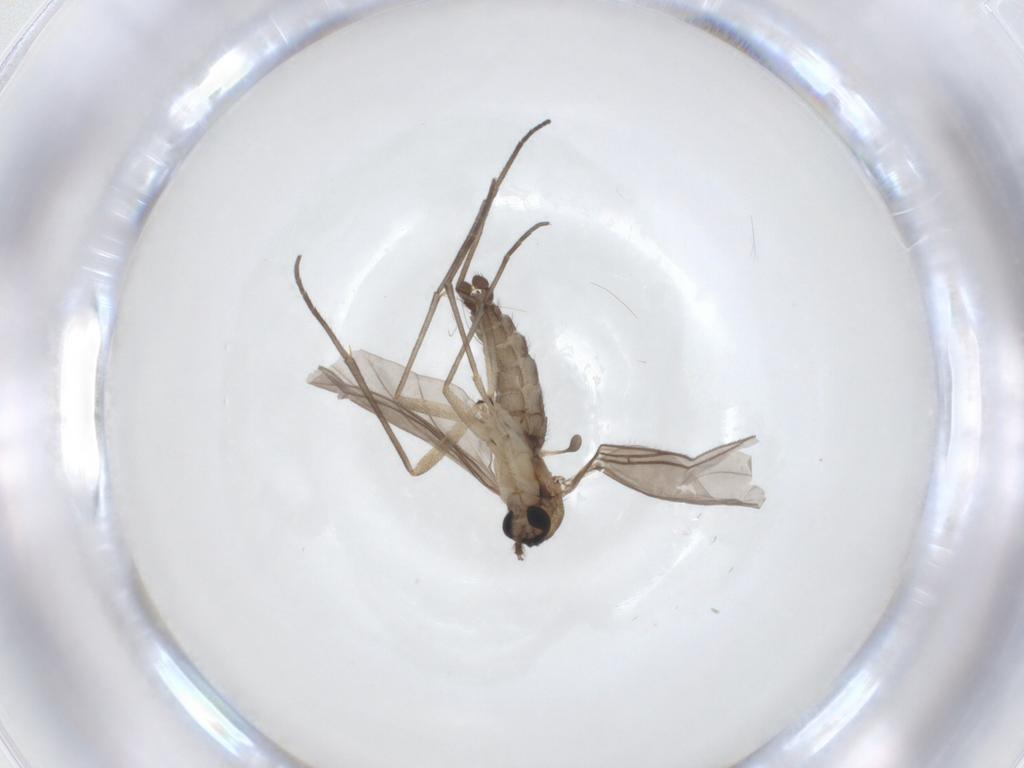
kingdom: Animalia
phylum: Arthropoda
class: Insecta
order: Diptera
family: Sciaridae
